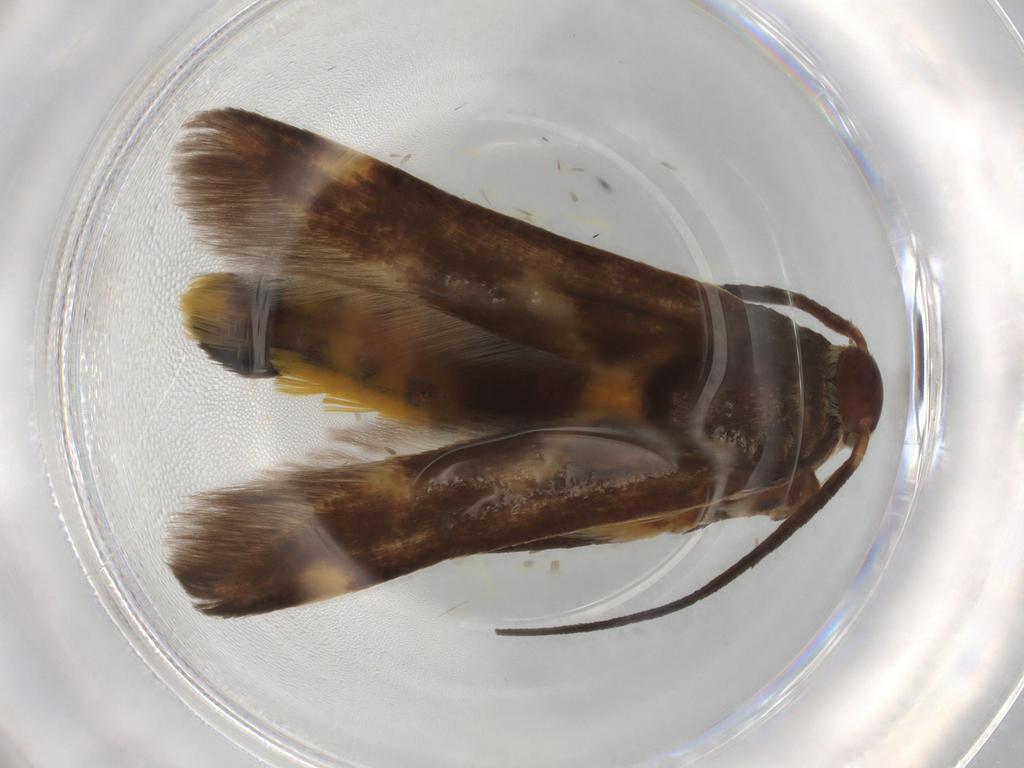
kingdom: Animalia
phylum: Arthropoda
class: Insecta
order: Lepidoptera
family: Scythrididae
